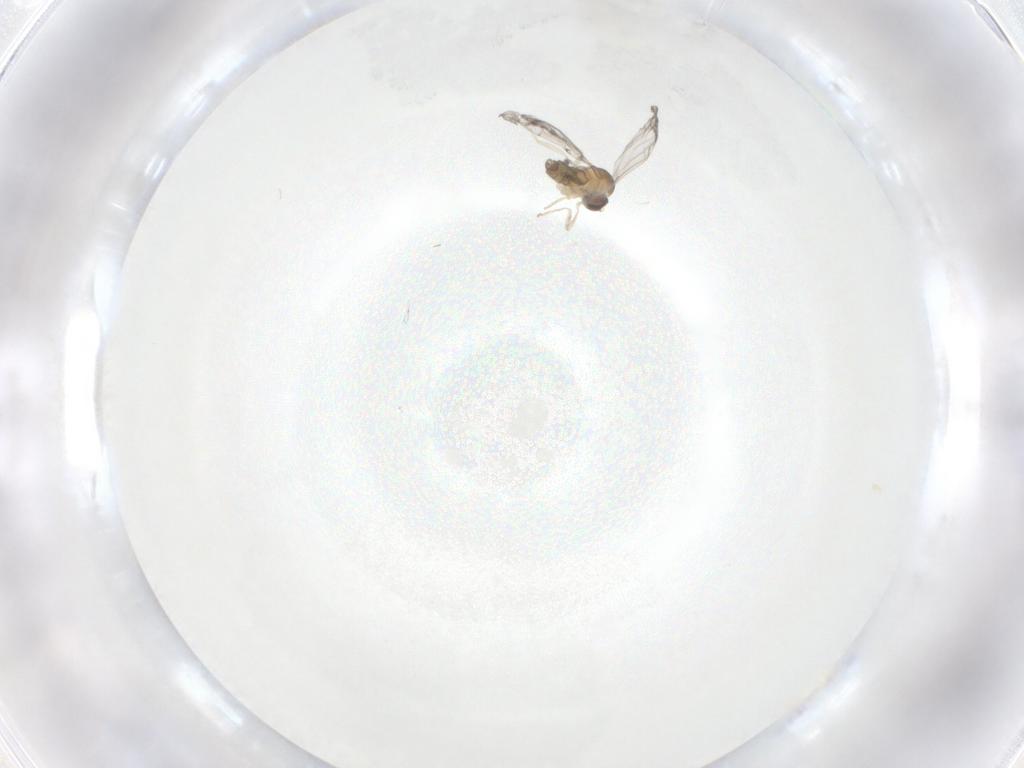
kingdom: Animalia
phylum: Arthropoda
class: Insecta
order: Diptera
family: Cecidomyiidae
